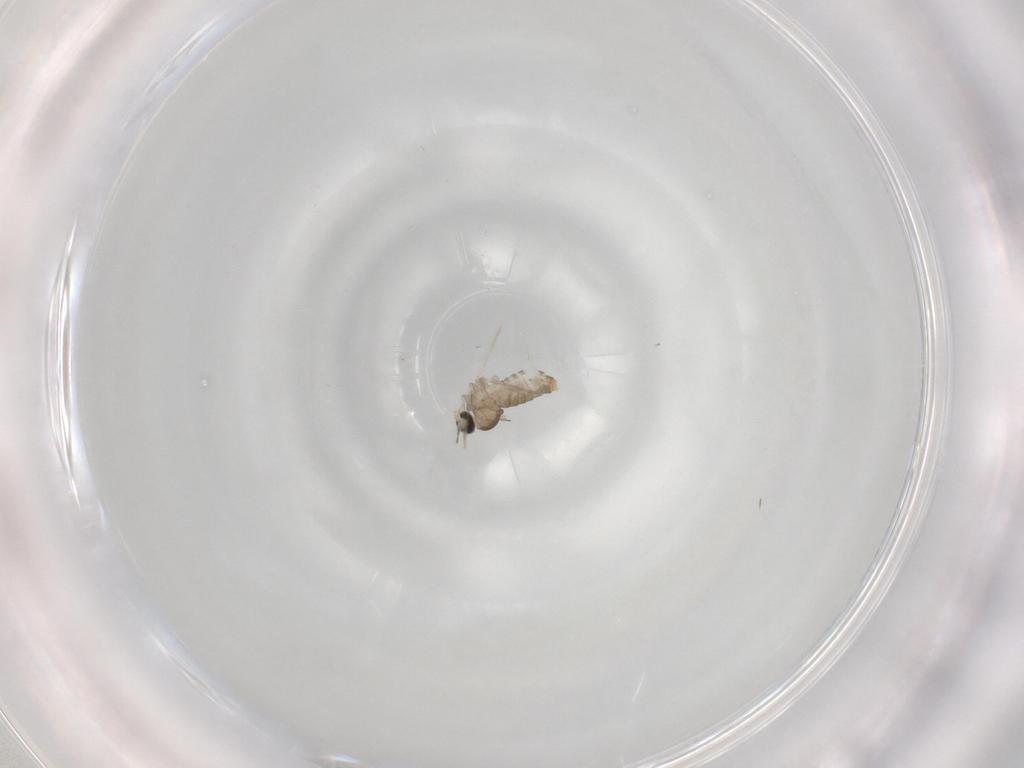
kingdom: Animalia
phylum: Arthropoda
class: Insecta
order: Diptera
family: Cecidomyiidae
